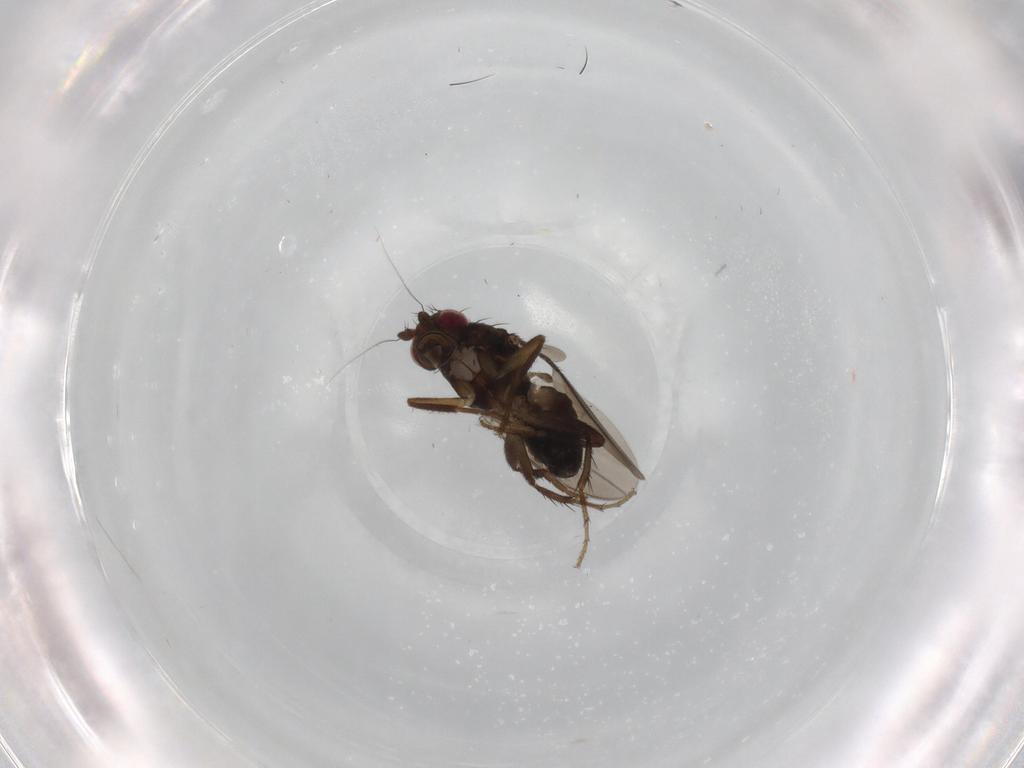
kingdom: Animalia
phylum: Arthropoda
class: Insecta
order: Diptera
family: Sphaeroceridae
